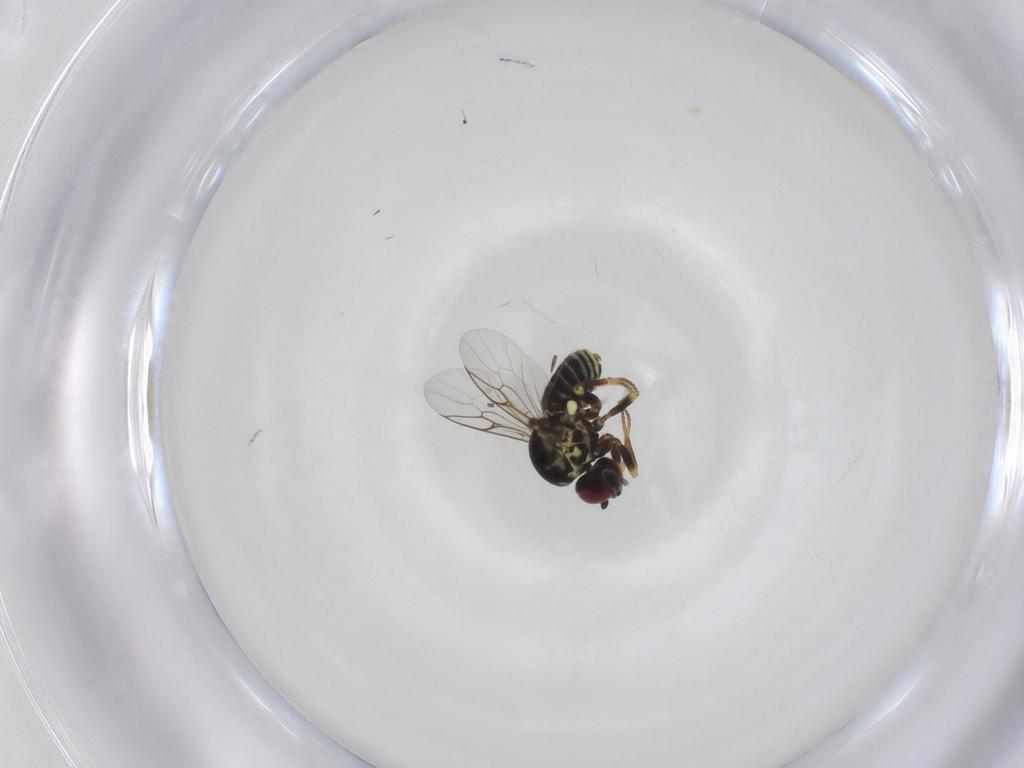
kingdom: Animalia
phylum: Arthropoda
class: Insecta
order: Diptera
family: Mythicomyiidae
